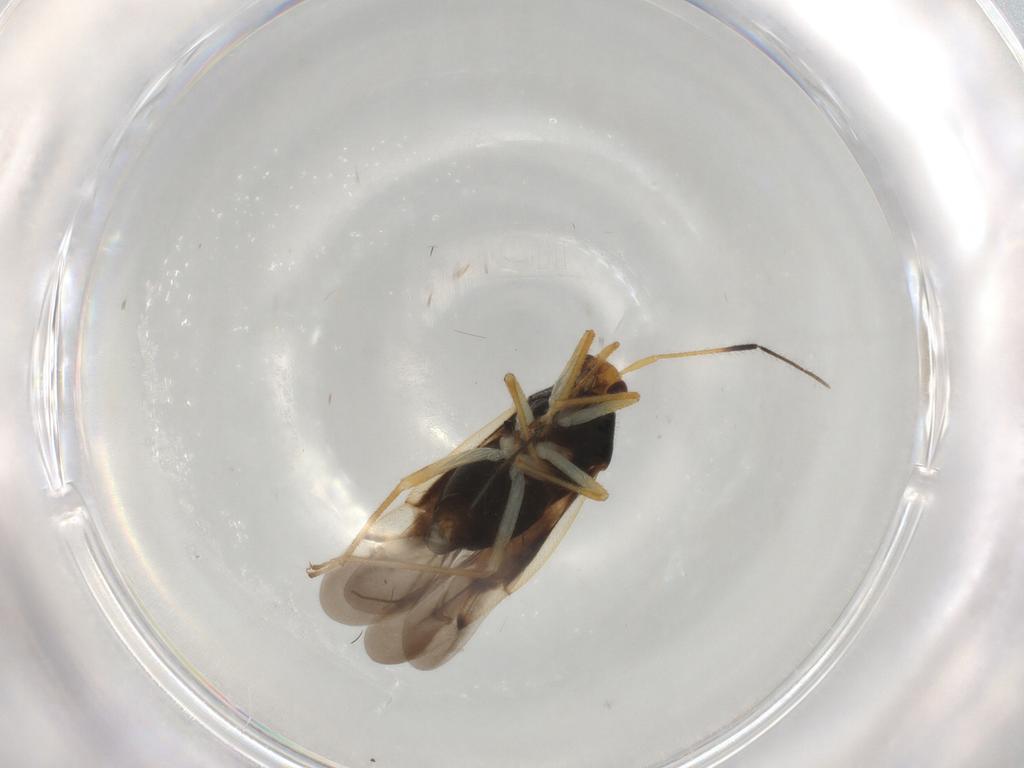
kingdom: Animalia
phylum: Arthropoda
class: Insecta
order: Hemiptera
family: Miridae
